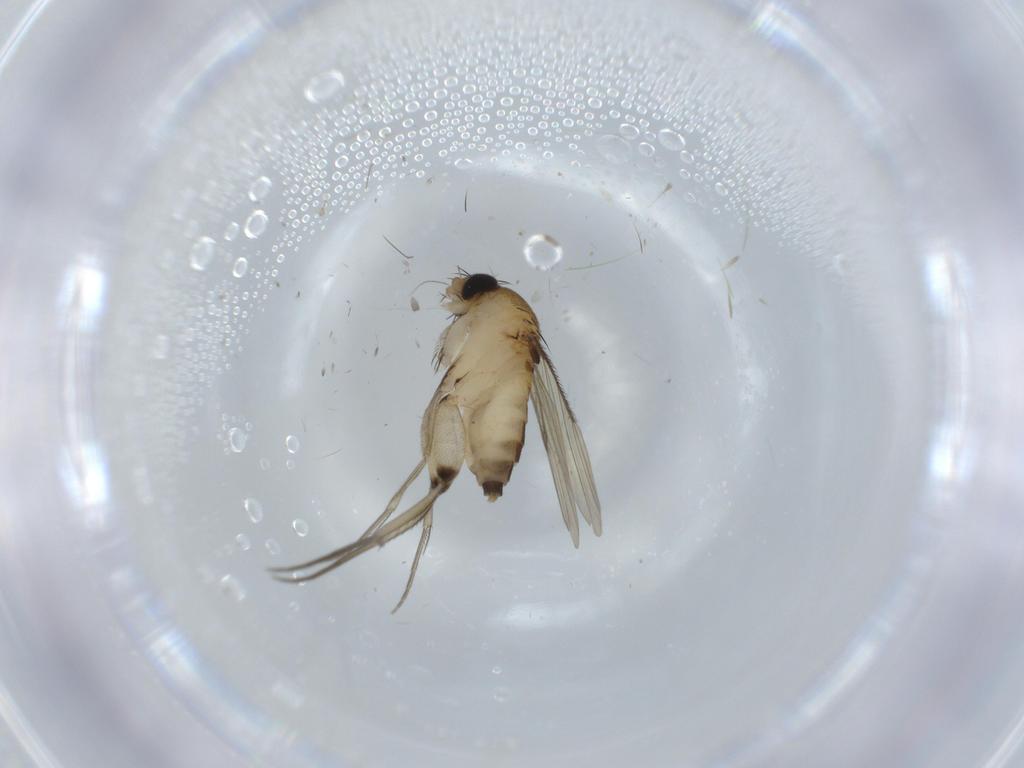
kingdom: Animalia
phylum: Arthropoda
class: Insecta
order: Diptera
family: Phoridae
